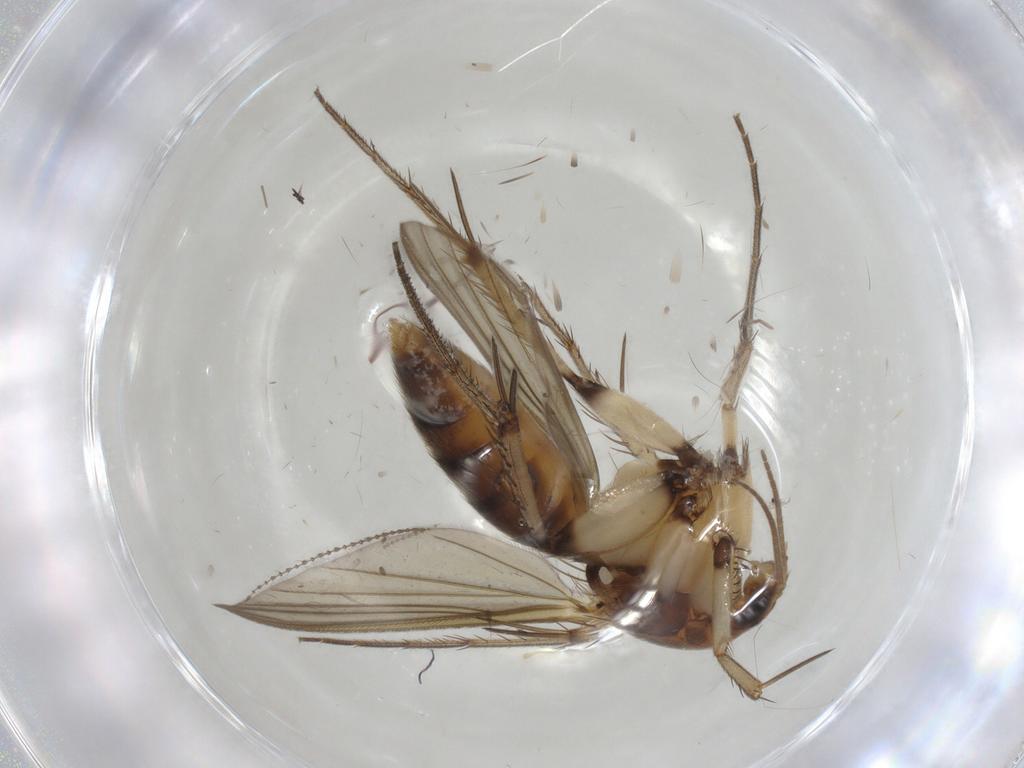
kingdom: Animalia
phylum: Arthropoda
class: Insecta
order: Diptera
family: Mycetophilidae
